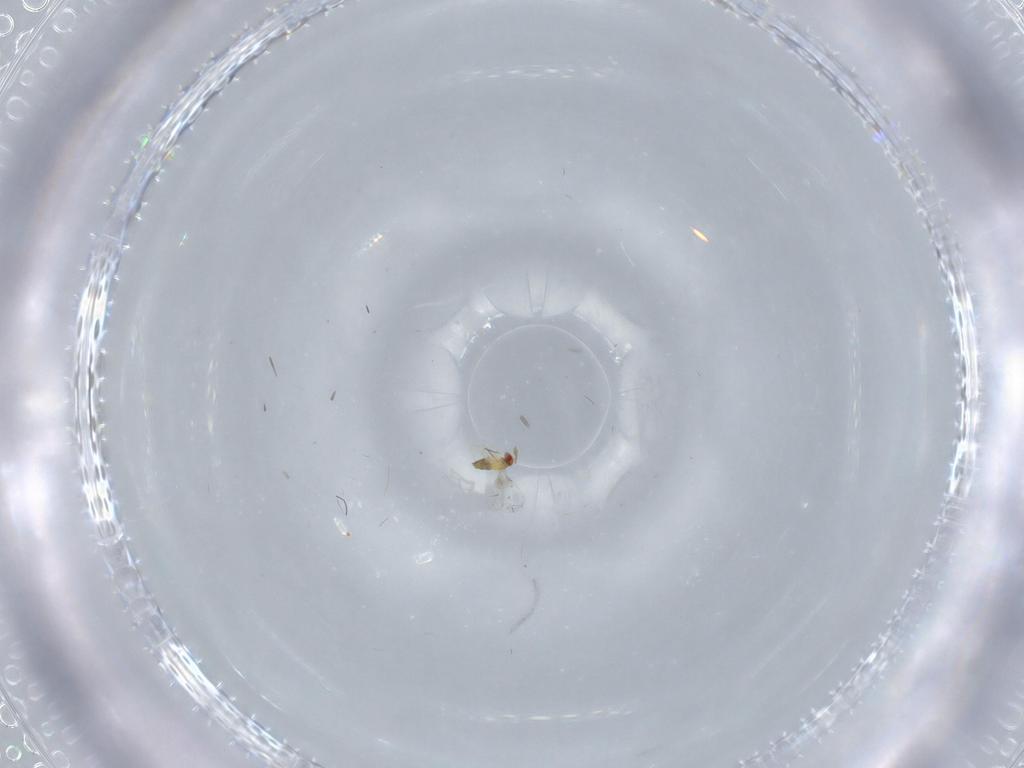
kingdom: Animalia
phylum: Arthropoda
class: Insecta
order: Hymenoptera
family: Trichogrammatidae
